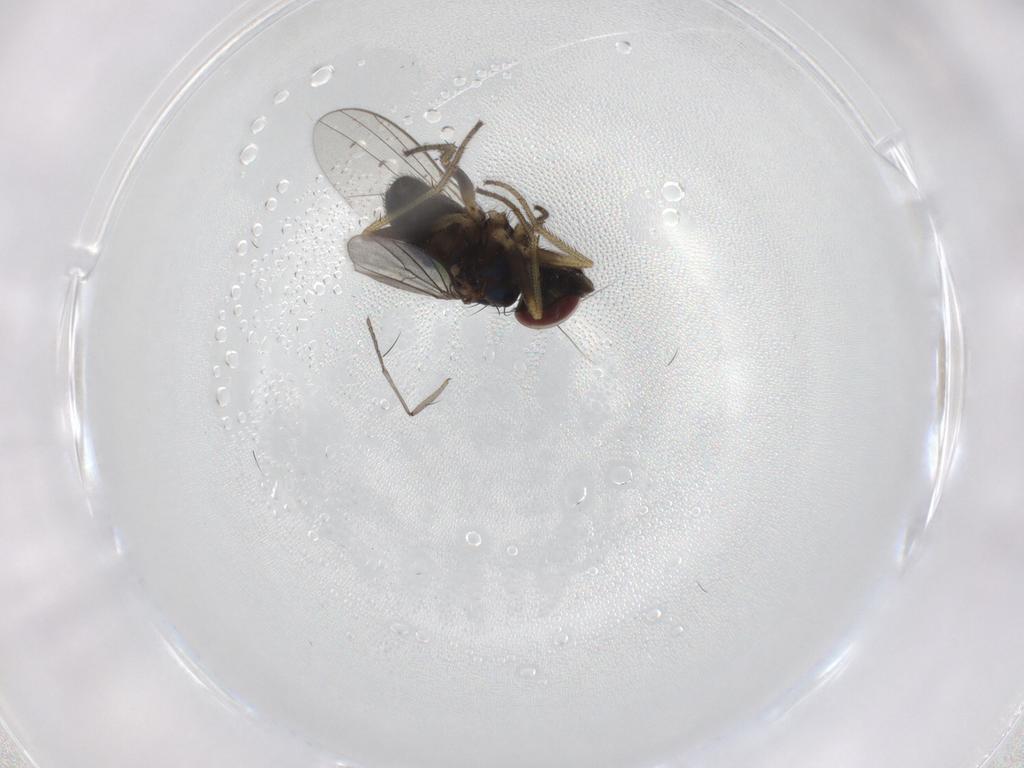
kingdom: Animalia
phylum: Arthropoda
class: Insecta
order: Diptera
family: Sciaridae
